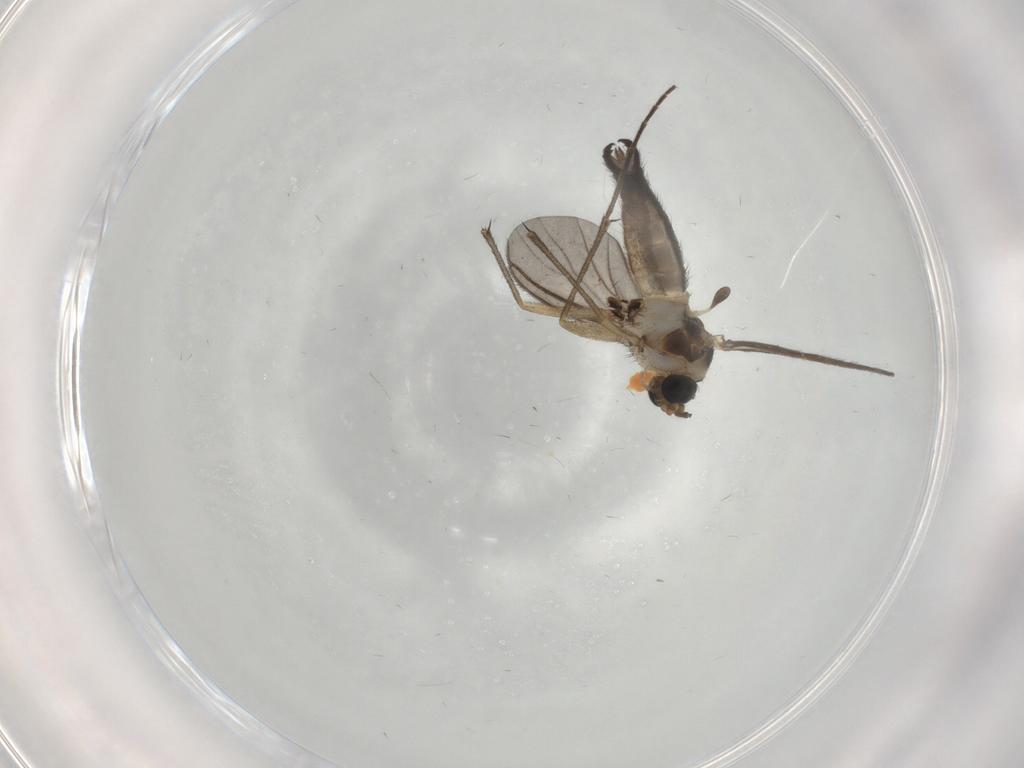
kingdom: Animalia
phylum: Arthropoda
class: Insecta
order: Diptera
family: Sciaridae
